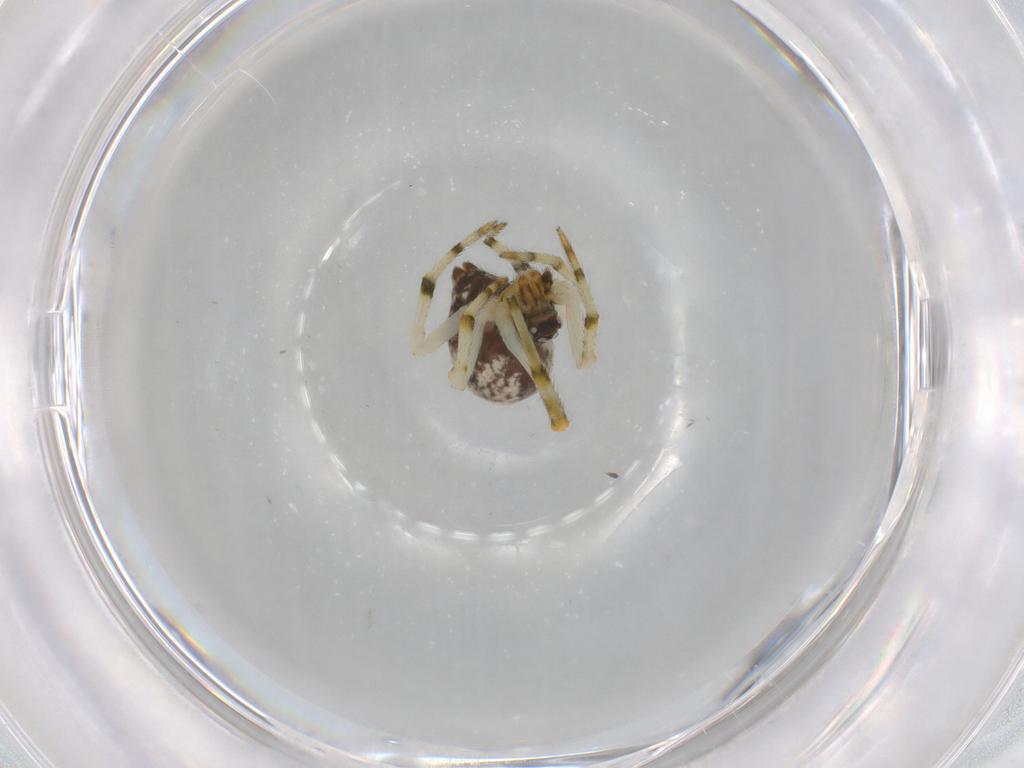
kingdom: Animalia
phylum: Arthropoda
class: Arachnida
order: Araneae
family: Theridiidae
